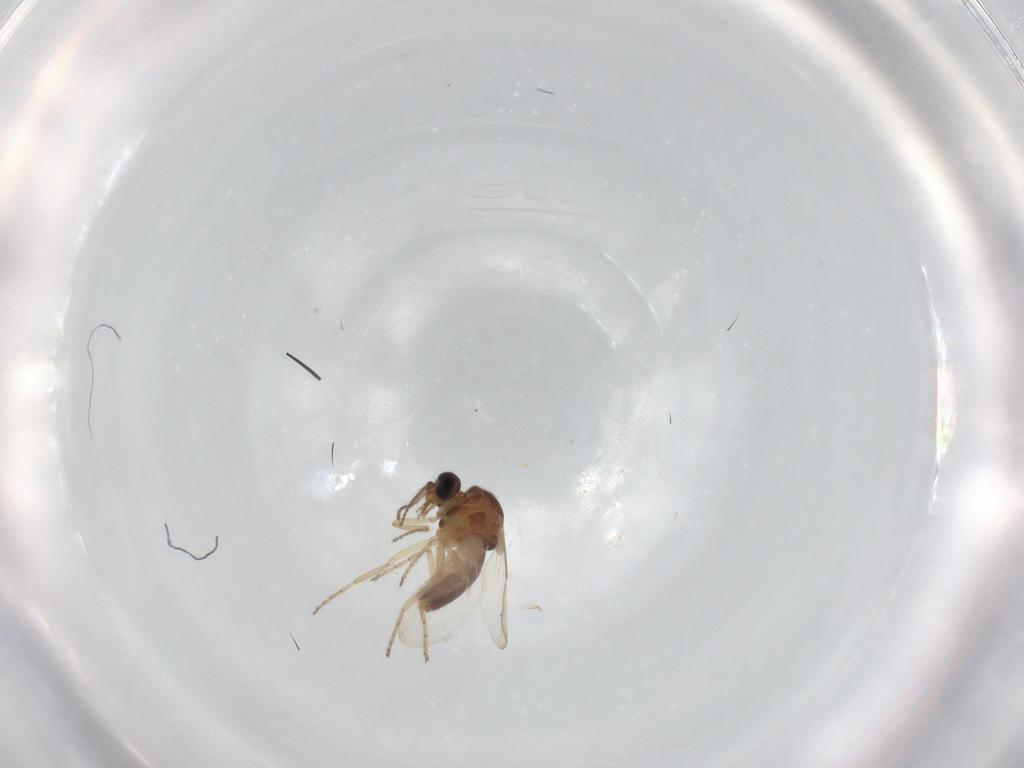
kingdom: Animalia
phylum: Arthropoda
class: Insecta
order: Diptera
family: Ceratopogonidae
